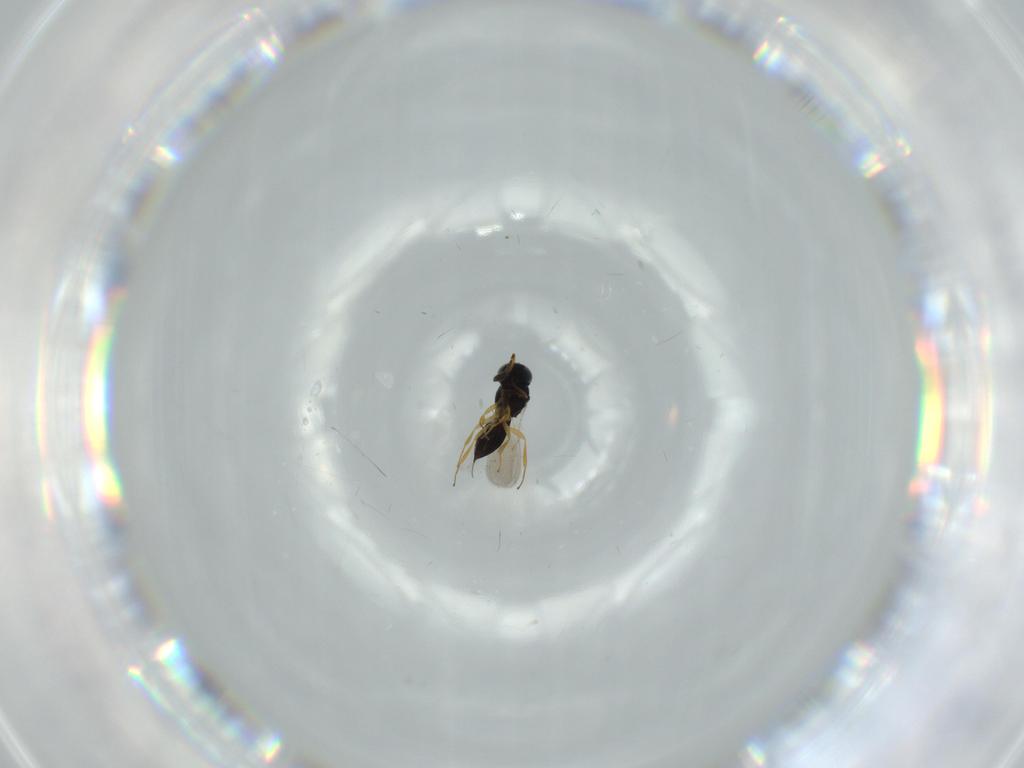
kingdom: Animalia
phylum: Arthropoda
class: Insecta
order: Hymenoptera
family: Scelionidae
